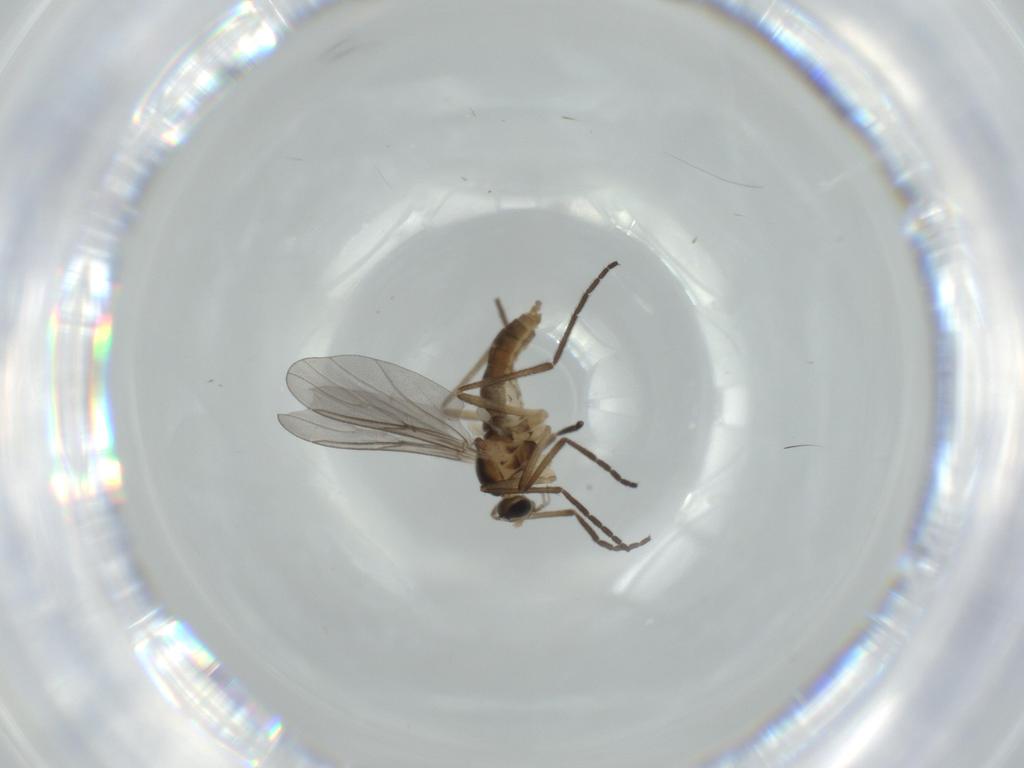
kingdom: Animalia
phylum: Arthropoda
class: Insecta
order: Diptera
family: Cecidomyiidae
